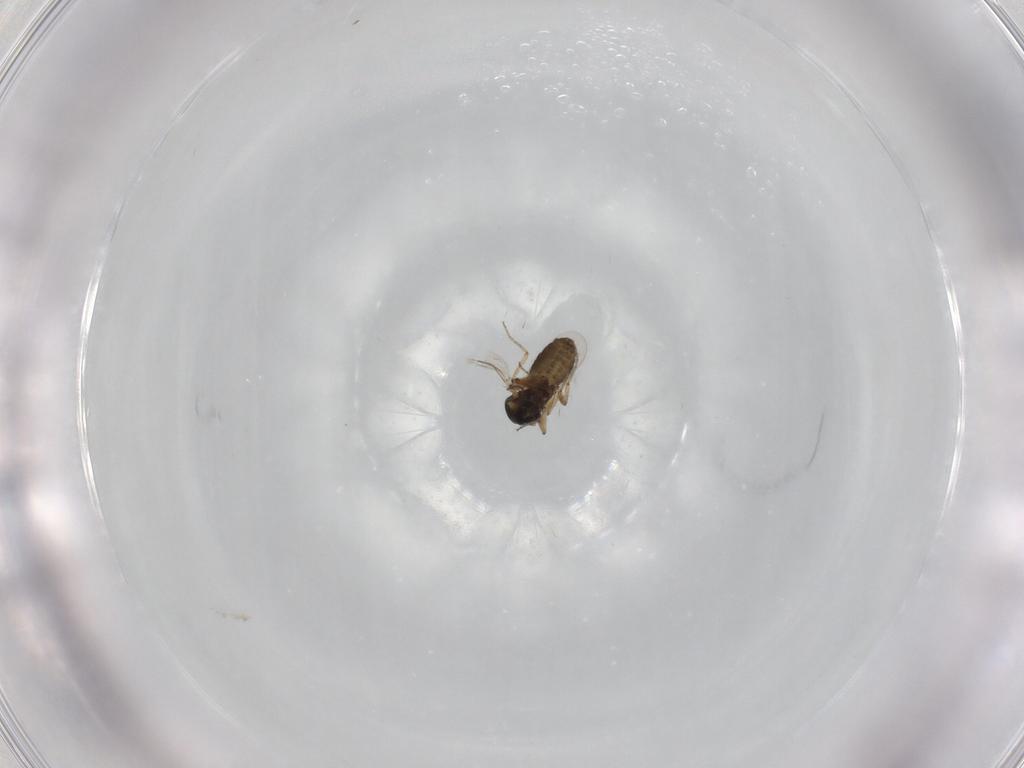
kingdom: Animalia
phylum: Arthropoda
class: Insecta
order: Diptera
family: Ceratopogonidae
